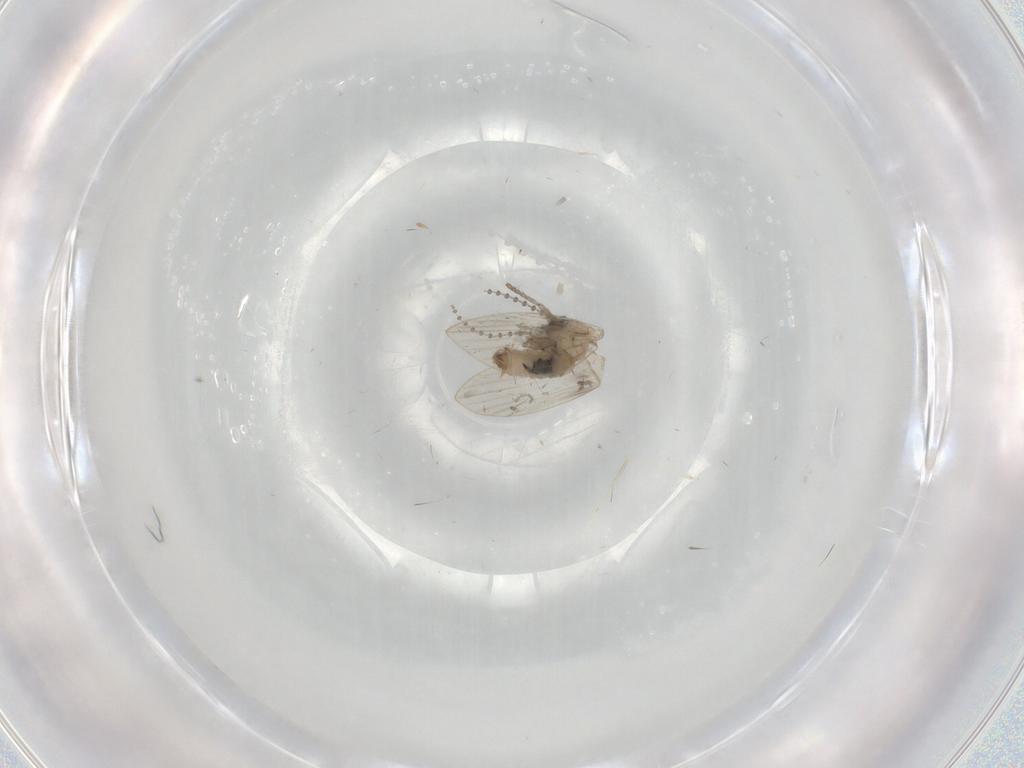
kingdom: Animalia
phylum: Arthropoda
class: Insecta
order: Diptera
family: Psychodidae
